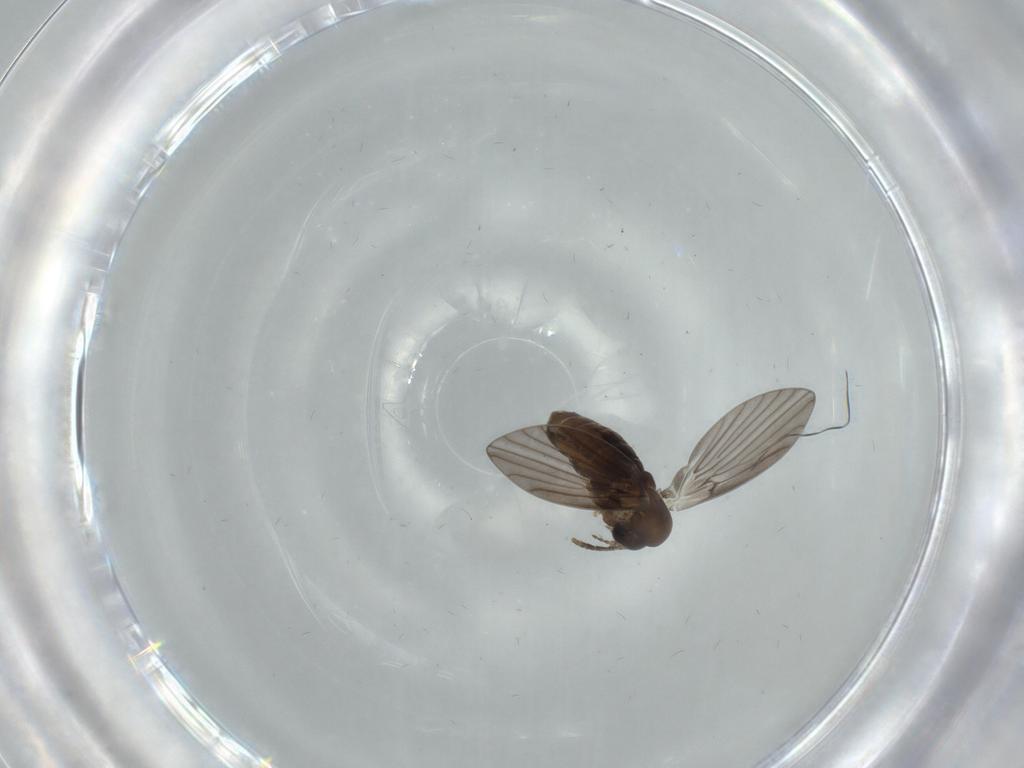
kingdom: Animalia
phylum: Arthropoda
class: Insecta
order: Diptera
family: Psychodidae
